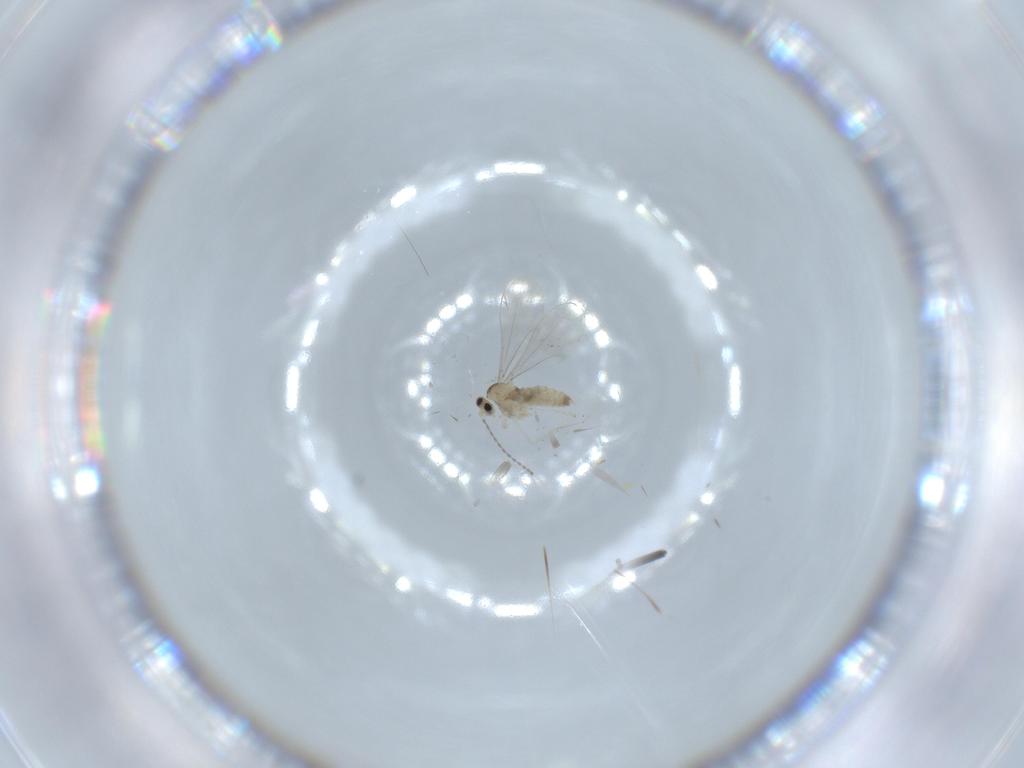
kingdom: Animalia
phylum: Arthropoda
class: Insecta
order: Diptera
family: Cecidomyiidae
